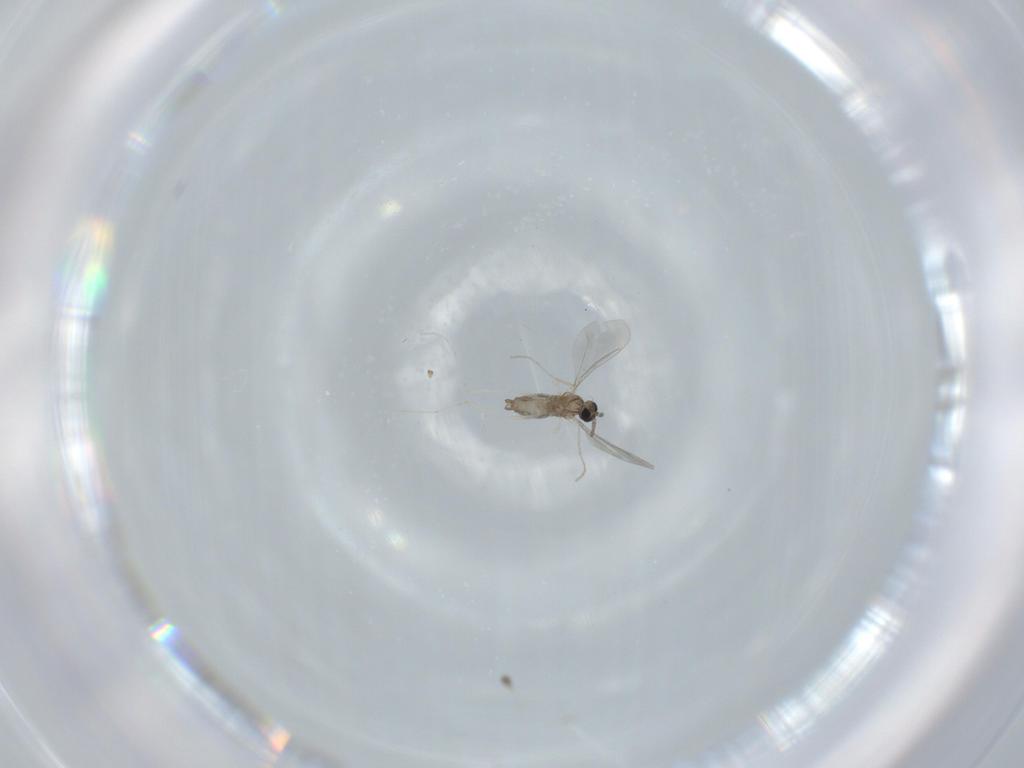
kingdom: Animalia
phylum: Arthropoda
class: Insecta
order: Diptera
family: Cecidomyiidae
